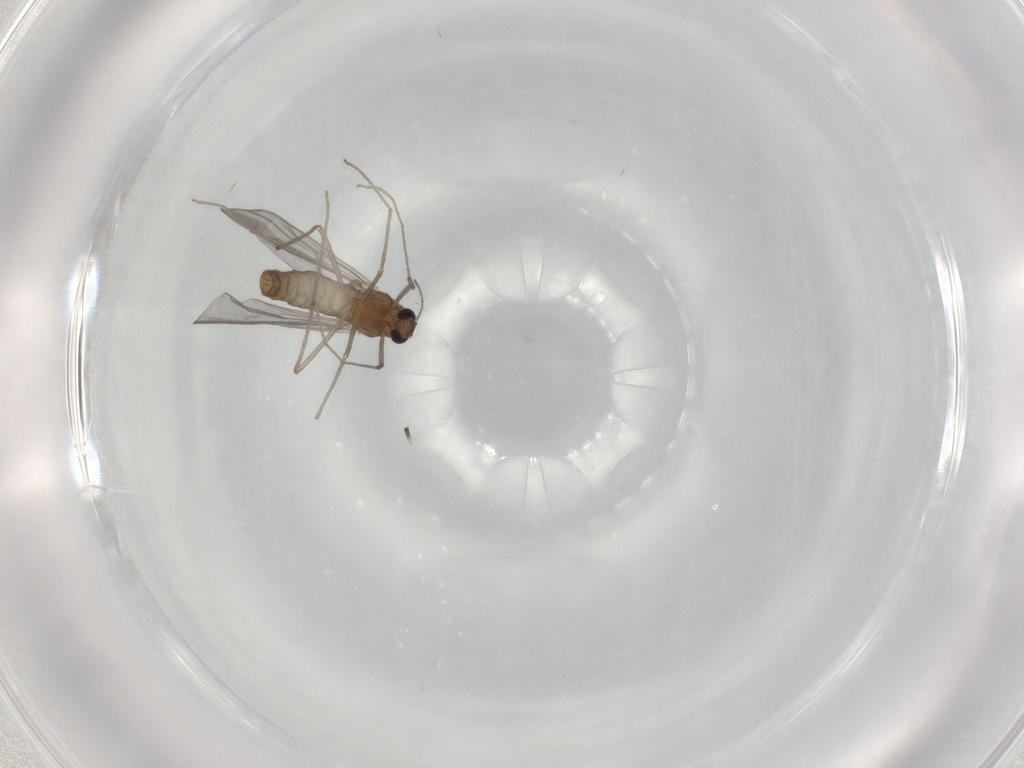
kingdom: Animalia
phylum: Arthropoda
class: Insecta
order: Diptera
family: Chironomidae
